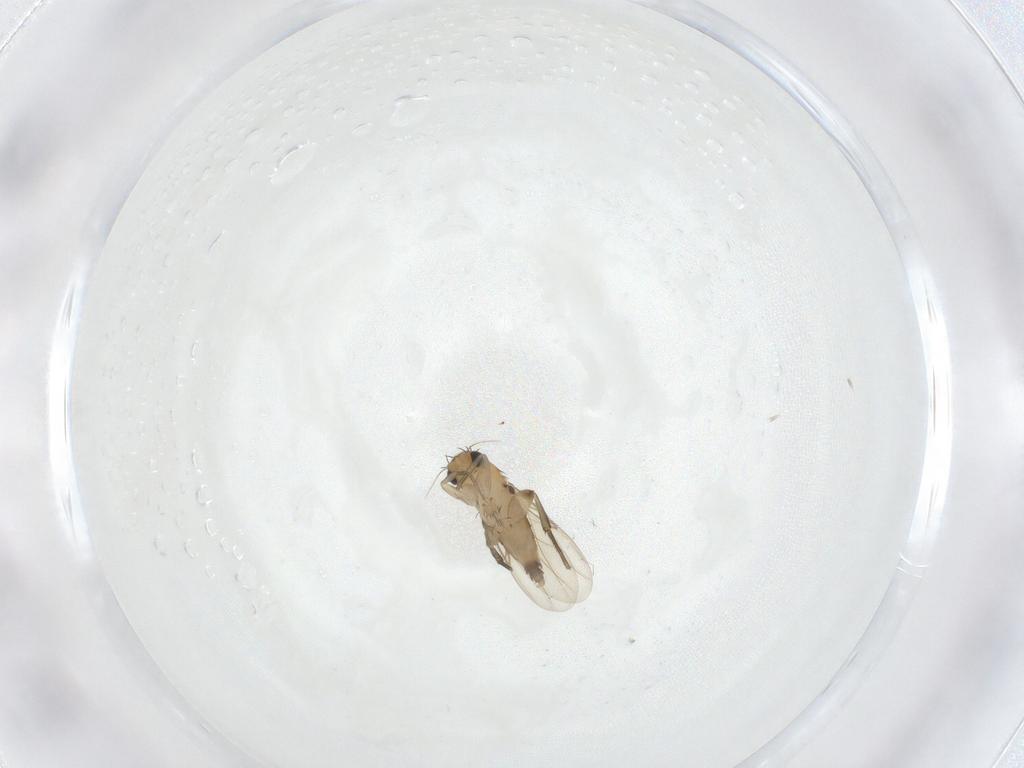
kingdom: Animalia
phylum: Arthropoda
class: Insecta
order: Diptera
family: Phoridae
